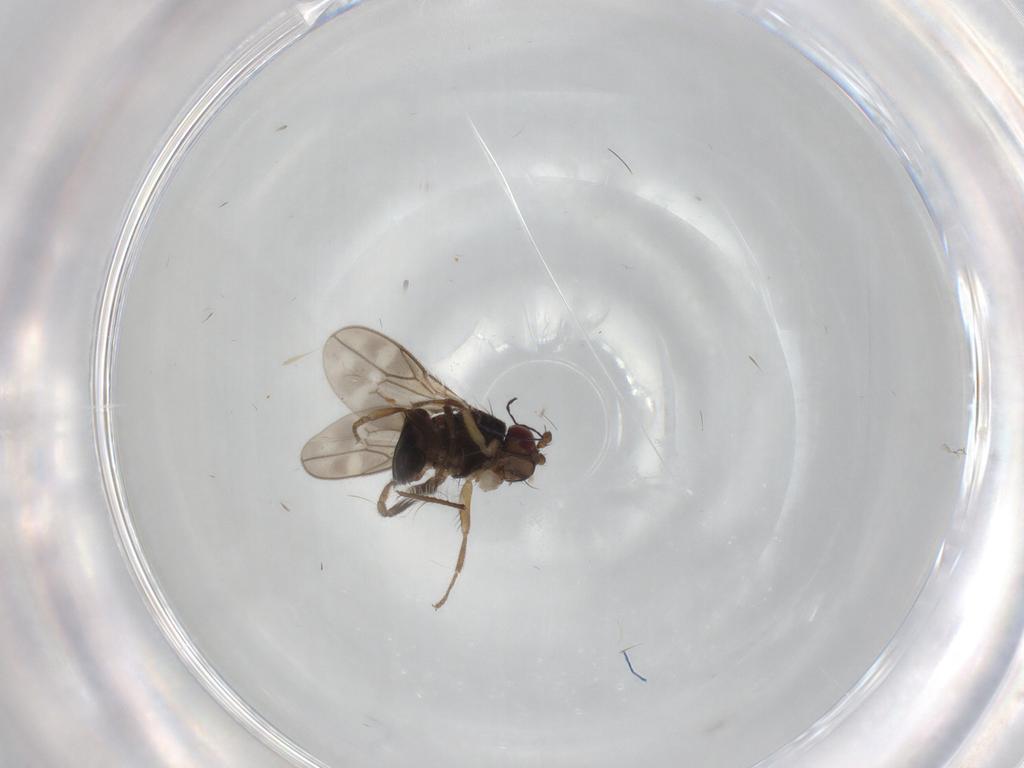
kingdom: Animalia
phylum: Arthropoda
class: Insecta
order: Diptera
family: Sphaeroceridae
